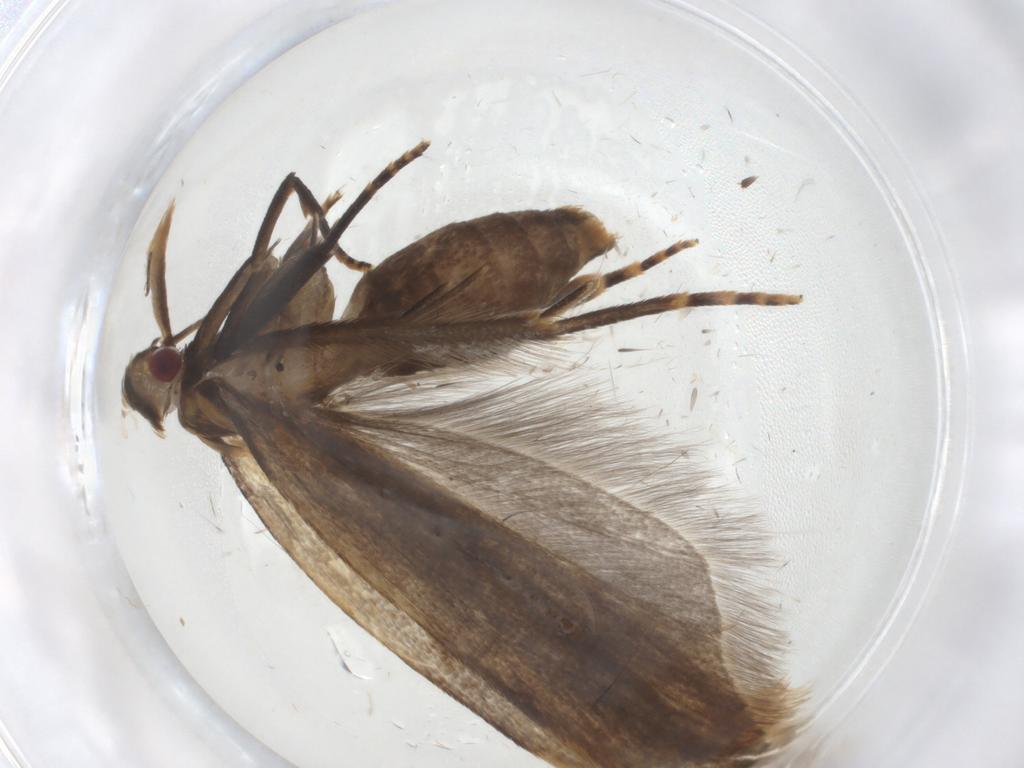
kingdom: Animalia
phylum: Arthropoda
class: Insecta
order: Lepidoptera
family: Gelechiidae
